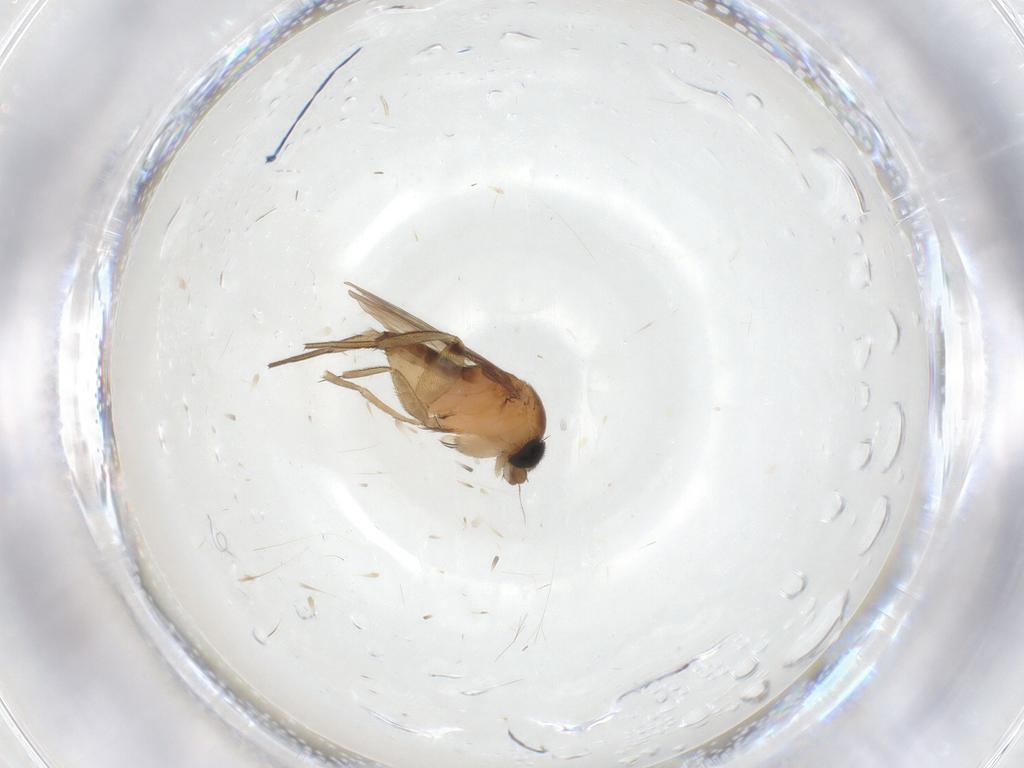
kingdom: Animalia
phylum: Arthropoda
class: Insecta
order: Diptera
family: Phoridae
